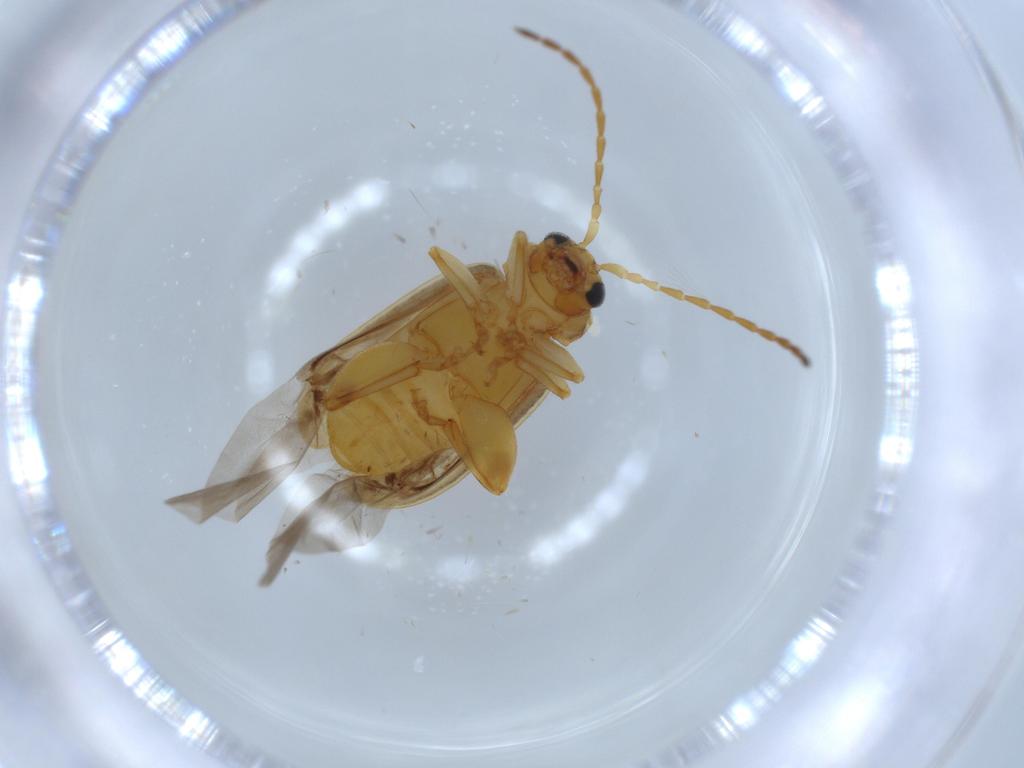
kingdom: Animalia
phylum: Arthropoda
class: Insecta
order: Coleoptera
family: Chrysomelidae
